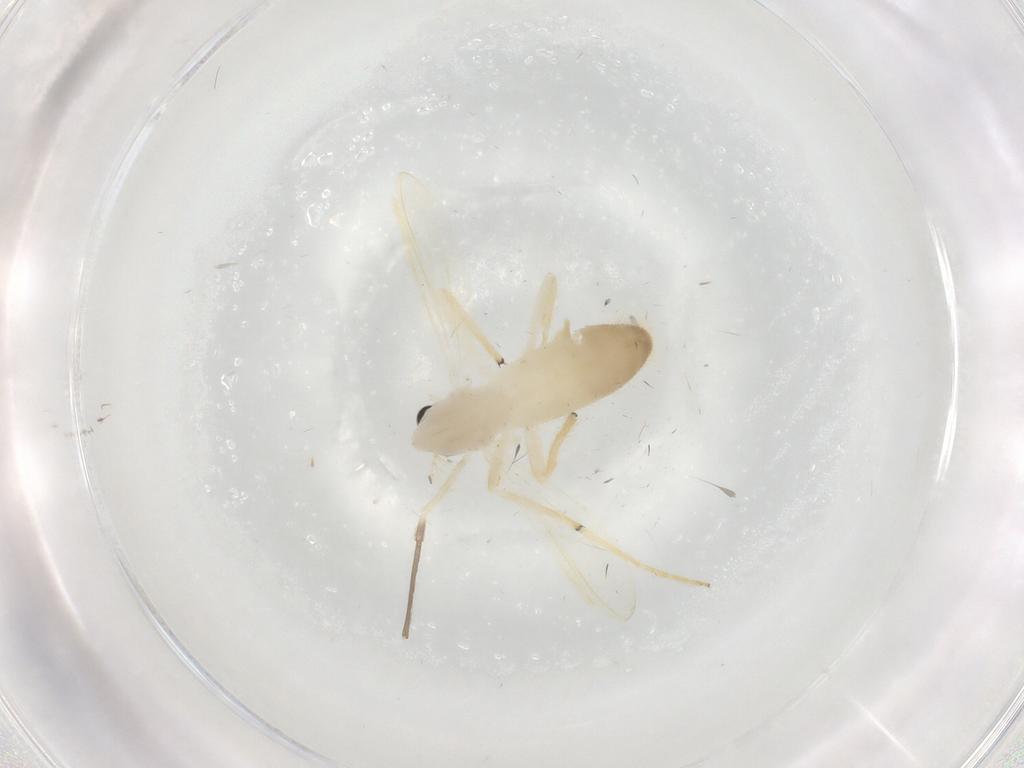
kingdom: Animalia
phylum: Arthropoda
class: Insecta
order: Diptera
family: Chironomidae
